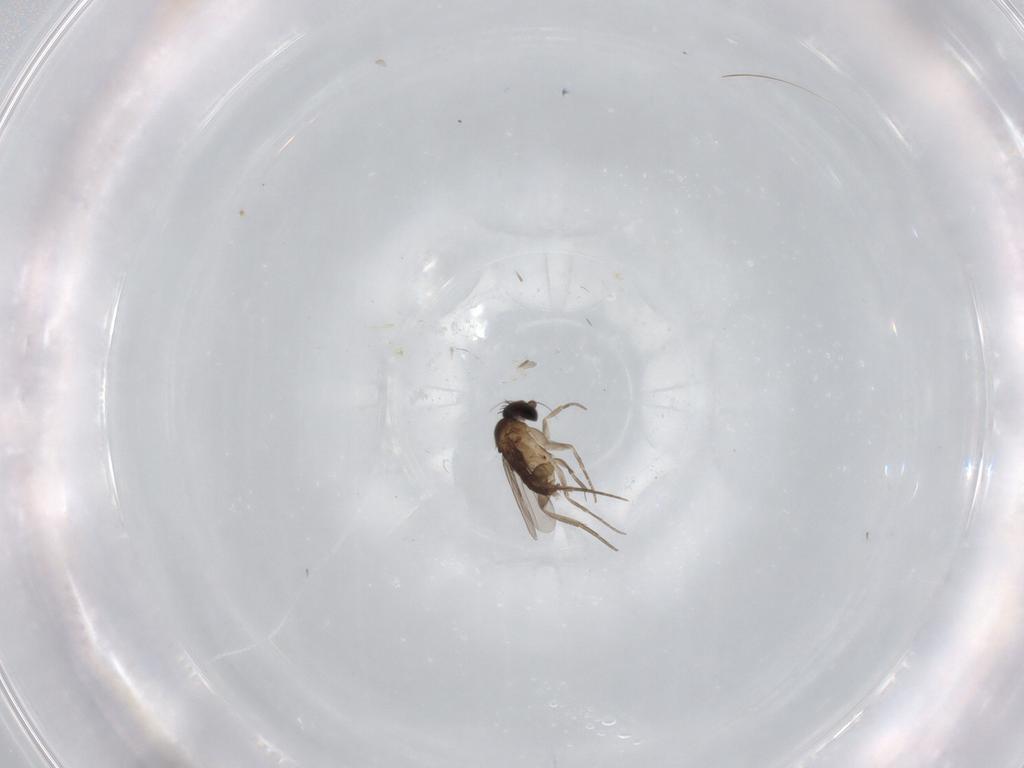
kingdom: Animalia
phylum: Arthropoda
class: Insecta
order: Diptera
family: Phoridae
